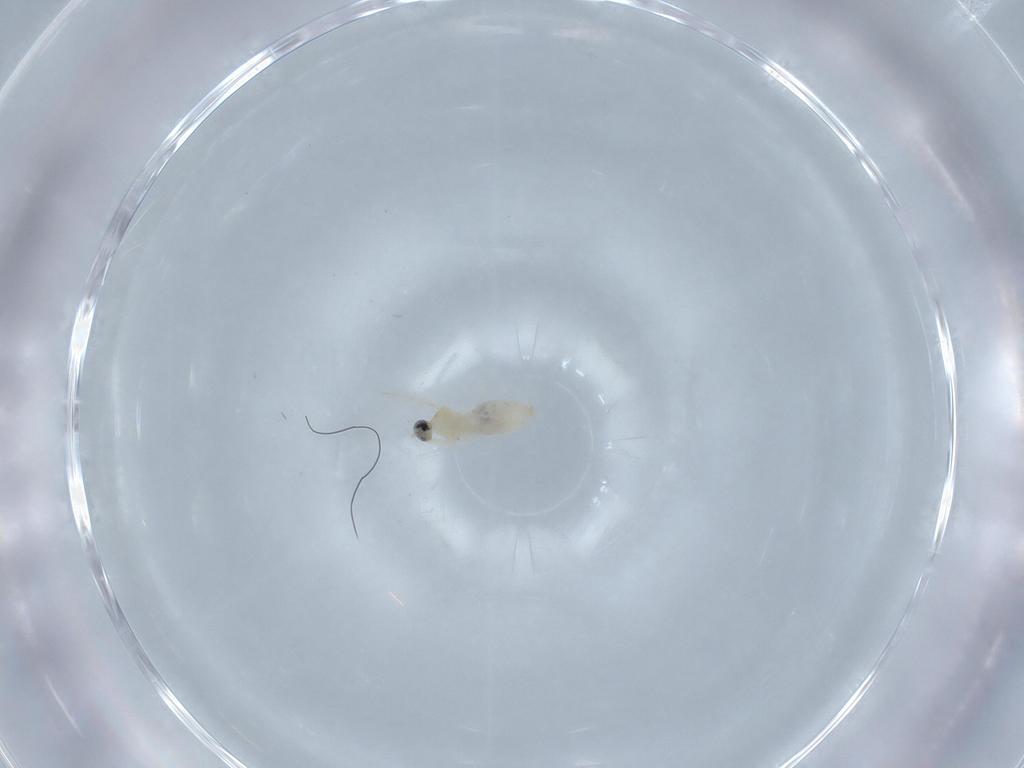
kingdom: Animalia
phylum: Arthropoda
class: Insecta
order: Diptera
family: Cecidomyiidae
